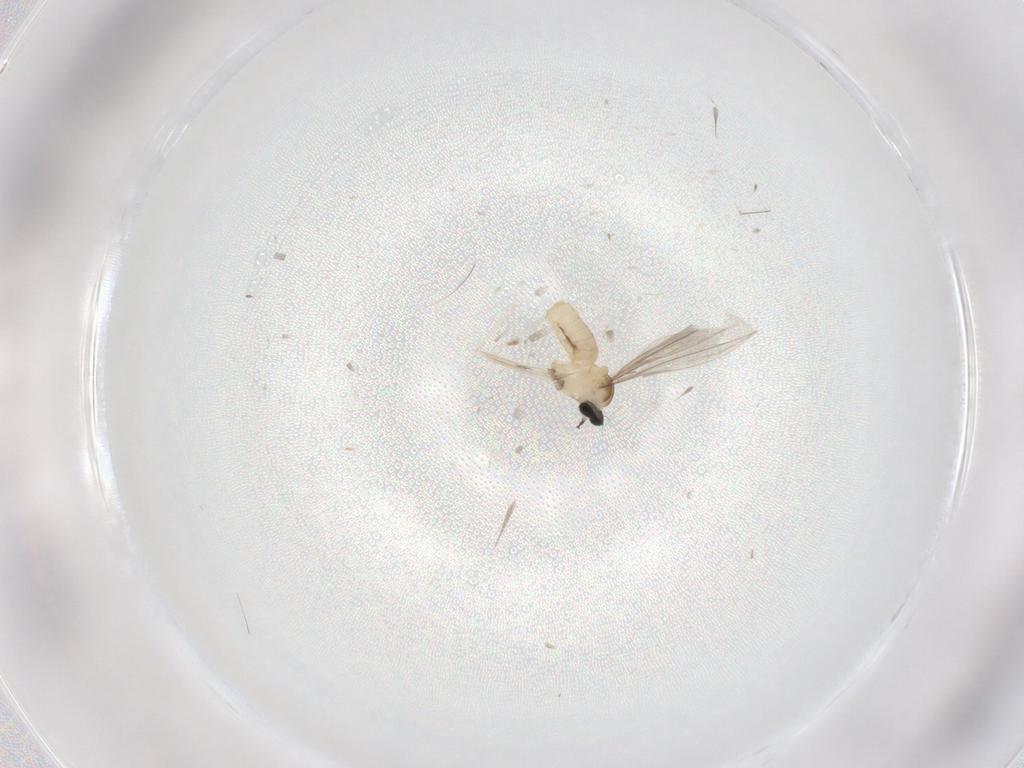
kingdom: Animalia
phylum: Arthropoda
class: Insecta
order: Diptera
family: Cecidomyiidae
